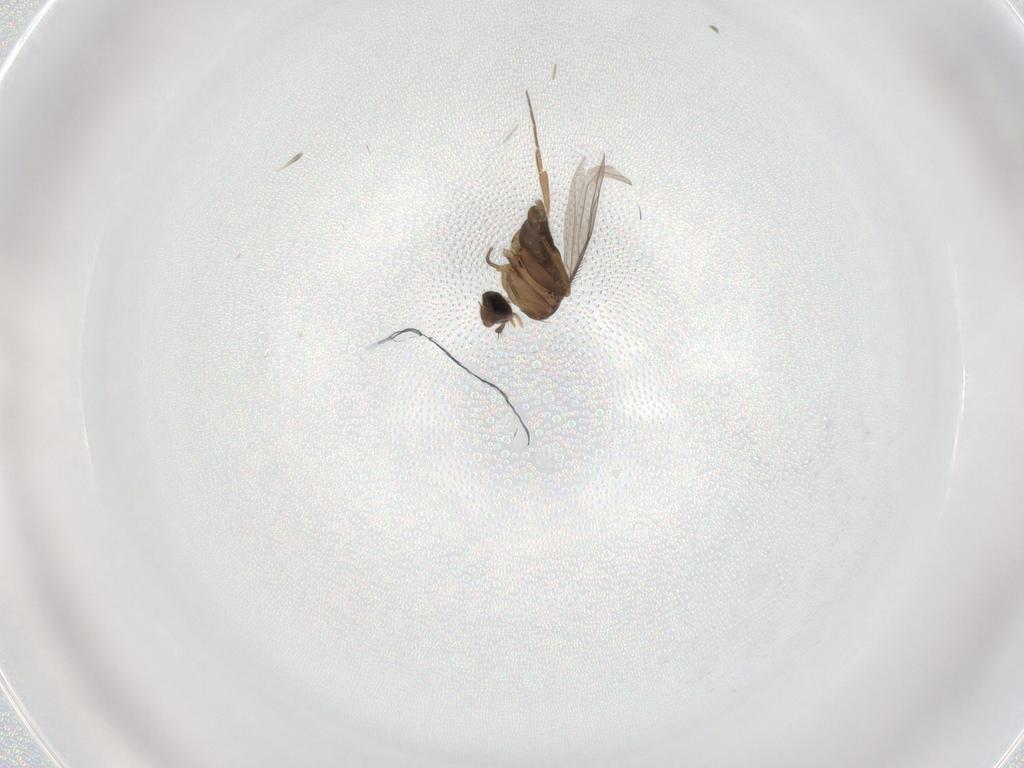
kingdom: Animalia
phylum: Arthropoda
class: Insecta
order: Diptera
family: Phoridae
